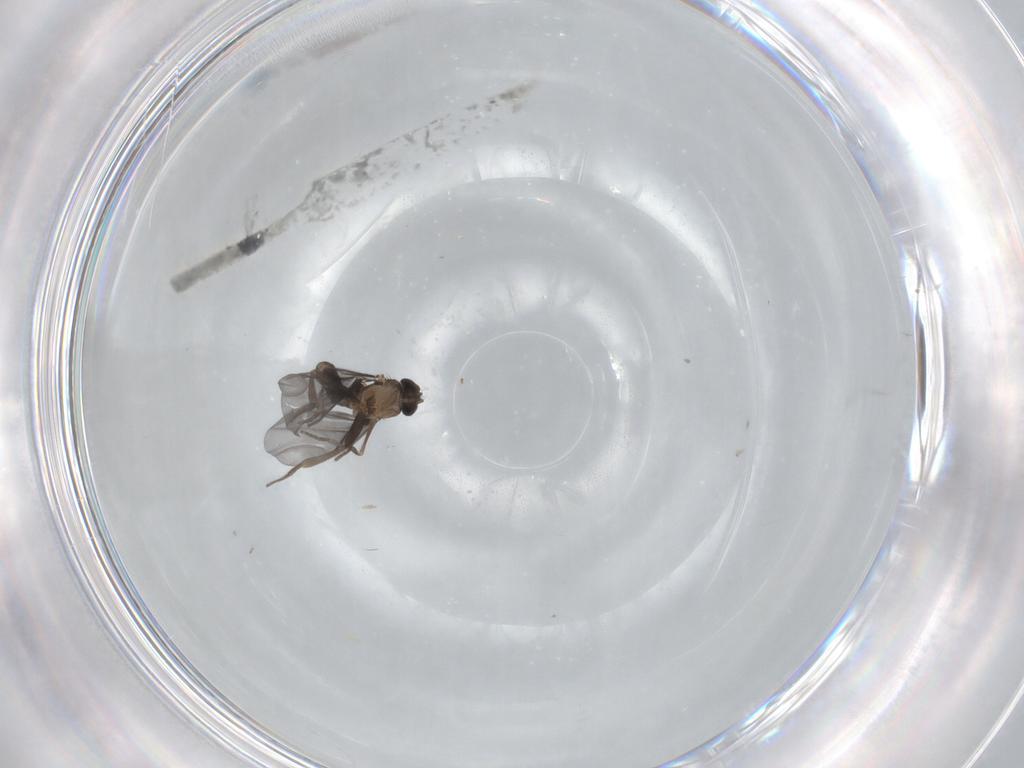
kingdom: Animalia
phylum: Arthropoda
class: Insecta
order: Diptera
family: Phoridae
